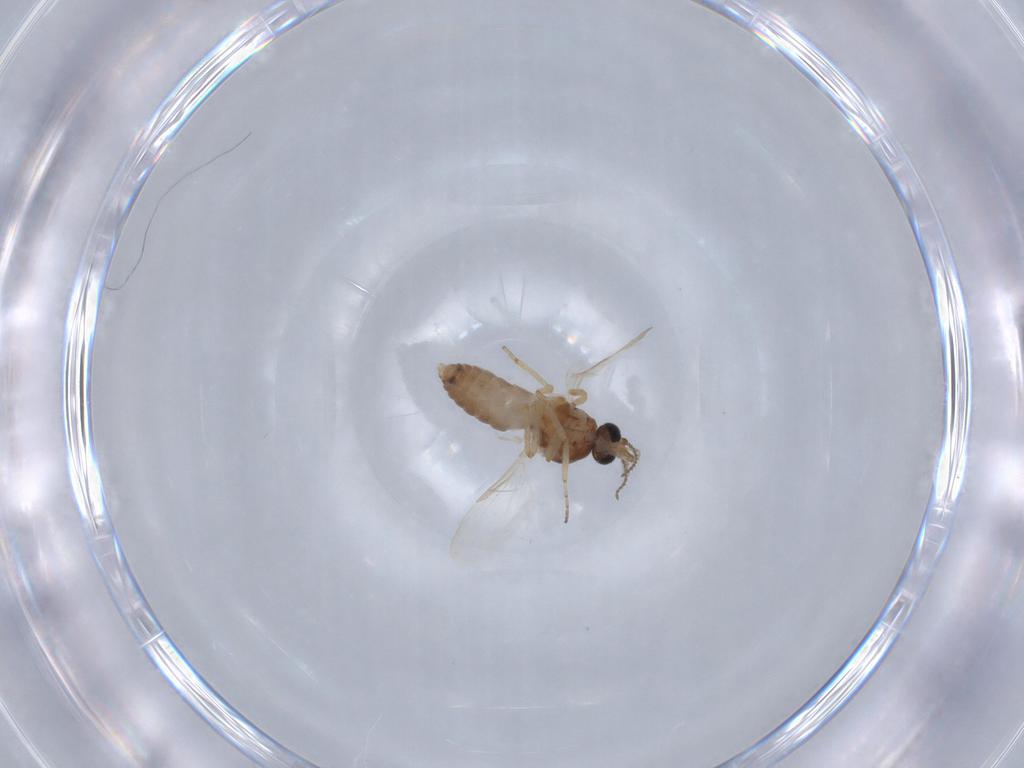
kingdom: Animalia
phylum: Arthropoda
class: Insecta
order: Diptera
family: Ceratopogonidae
